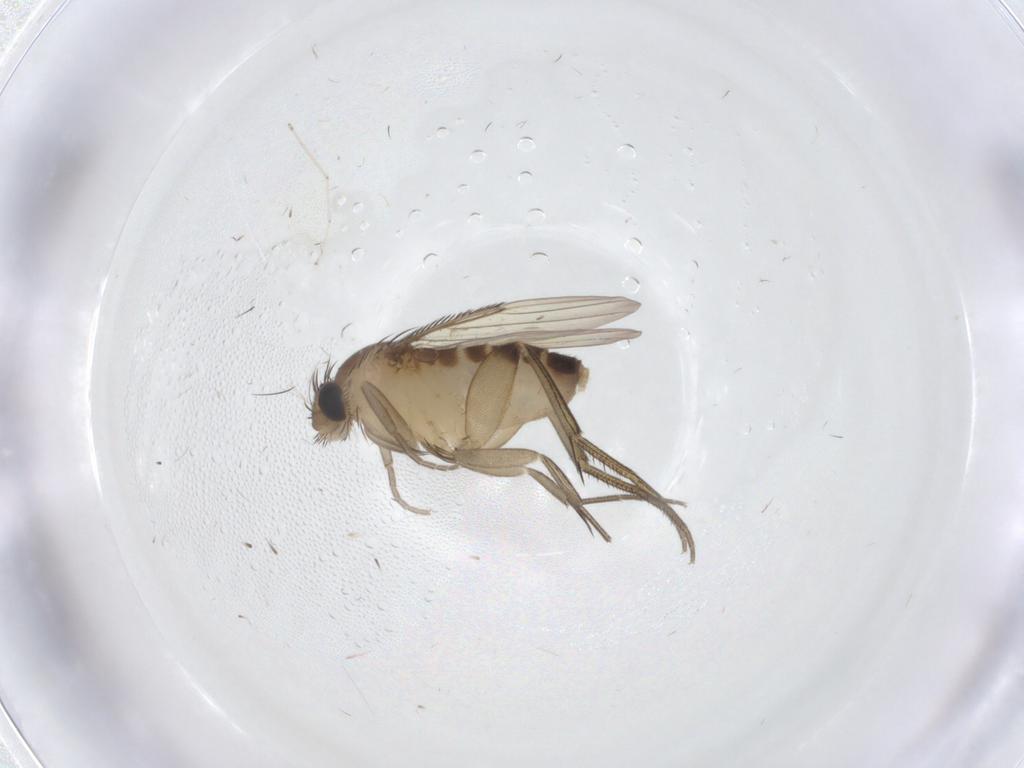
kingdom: Animalia
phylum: Arthropoda
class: Insecta
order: Diptera
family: Phoridae
